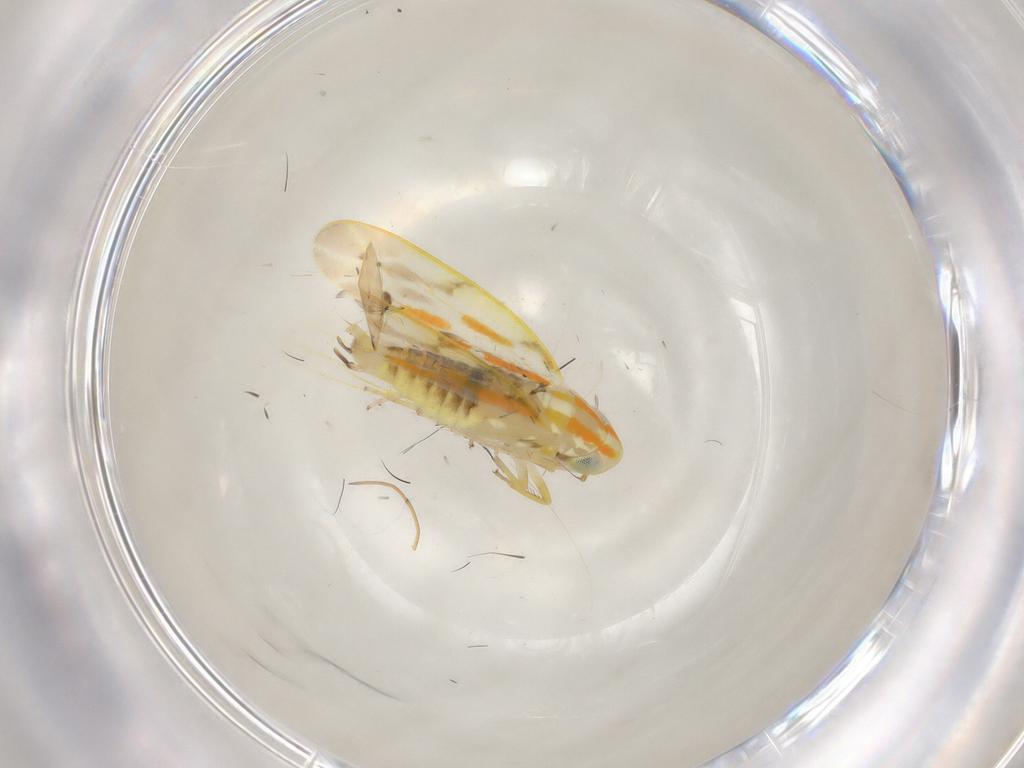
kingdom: Animalia
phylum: Arthropoda
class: Insecta
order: Hemiptera
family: Cicadellidae
